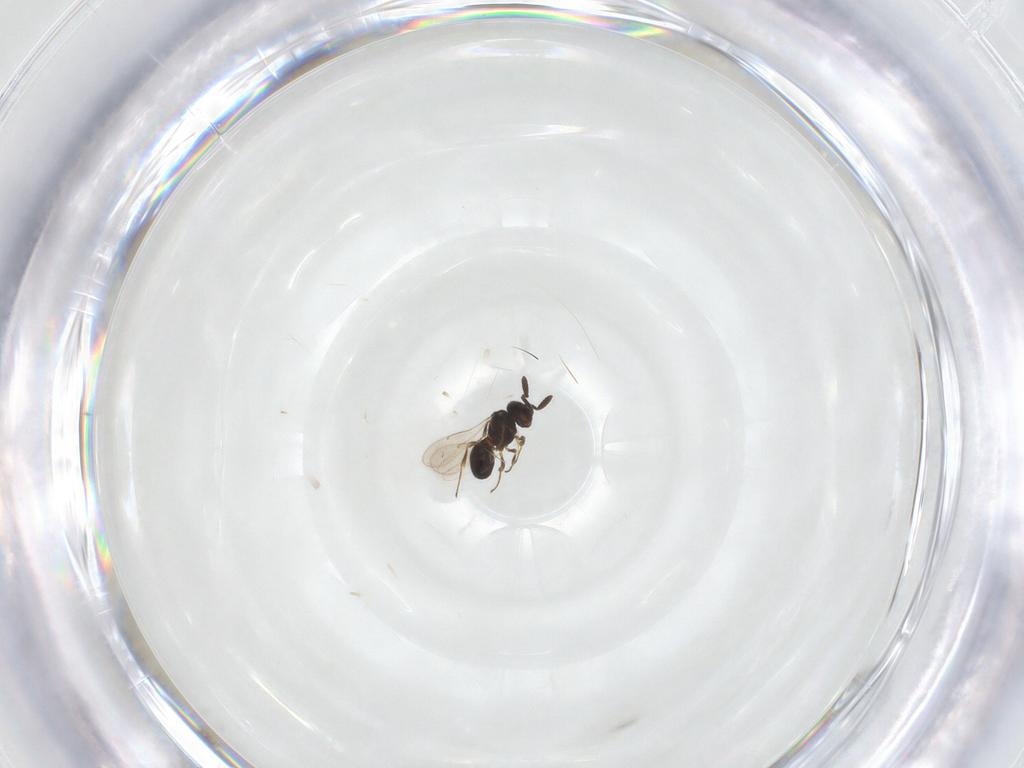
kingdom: Animalia
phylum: Arthropoda
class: Insecta
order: Hymenoptera
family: Scelionidae
